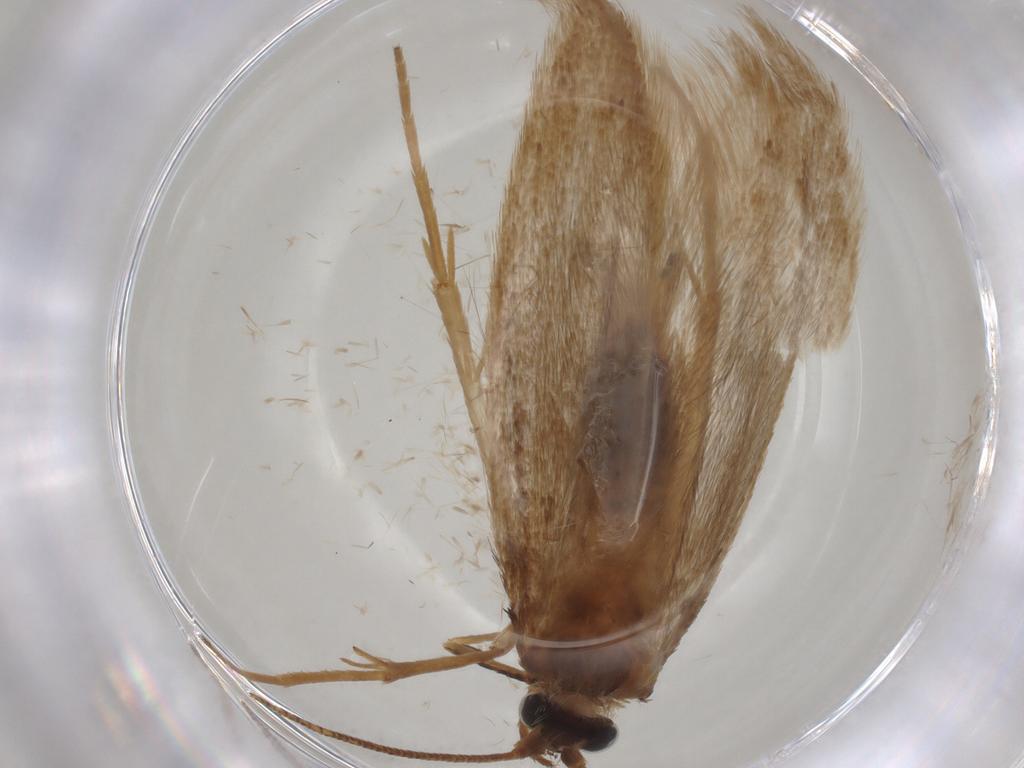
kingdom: Animalia
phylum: Arthropoda
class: Insecta
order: Lepidoptera
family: Adelidae
